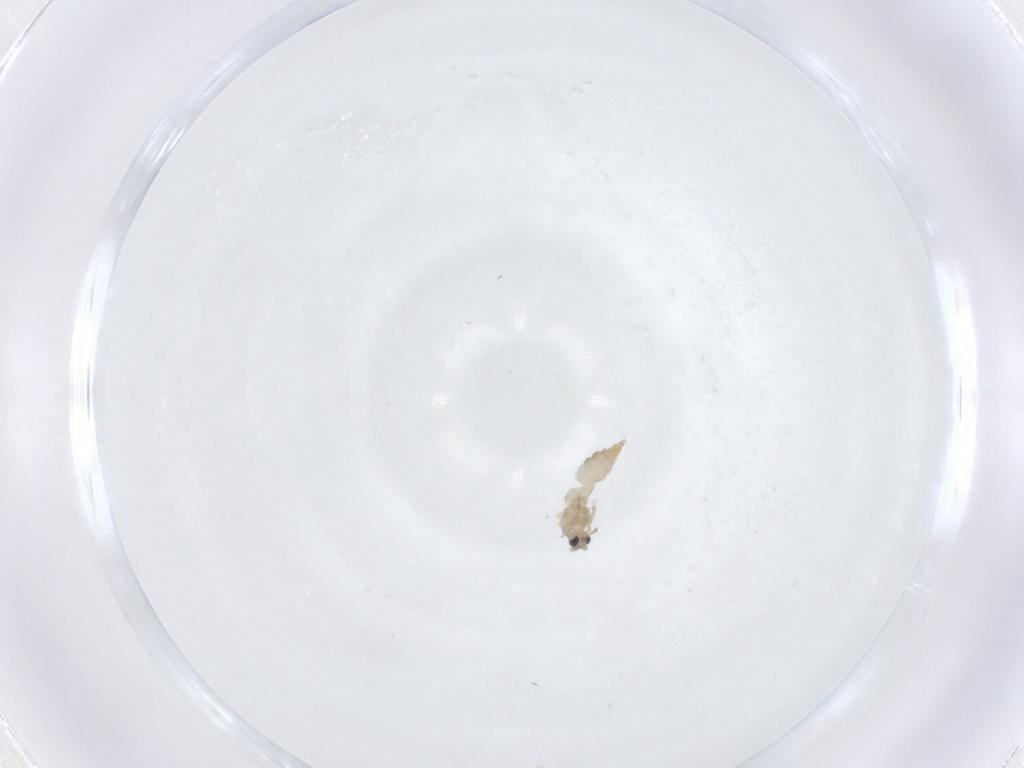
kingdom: Animalia
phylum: Arthropoda
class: Insecta
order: Diptera
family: Cecidomyiidae
